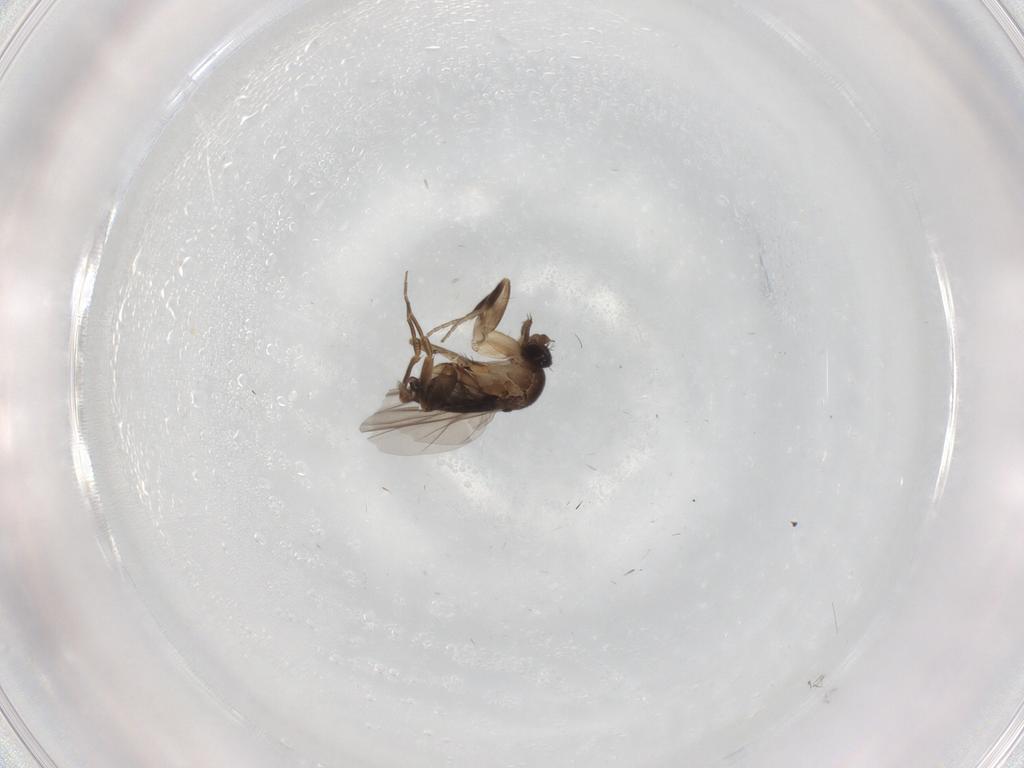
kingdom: Animalia
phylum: Arthropoda
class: Insecta
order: Diptera
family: Phoridae
